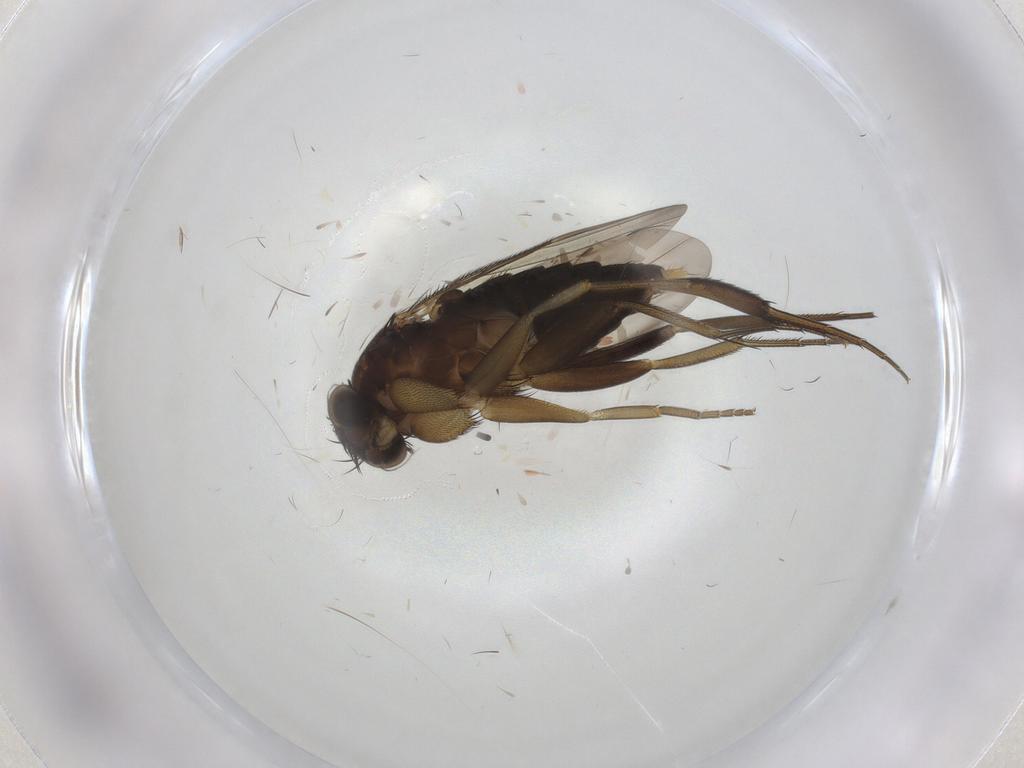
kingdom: Animalia
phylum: Arthropoda
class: Insecta
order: Diptera
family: Phoridae
